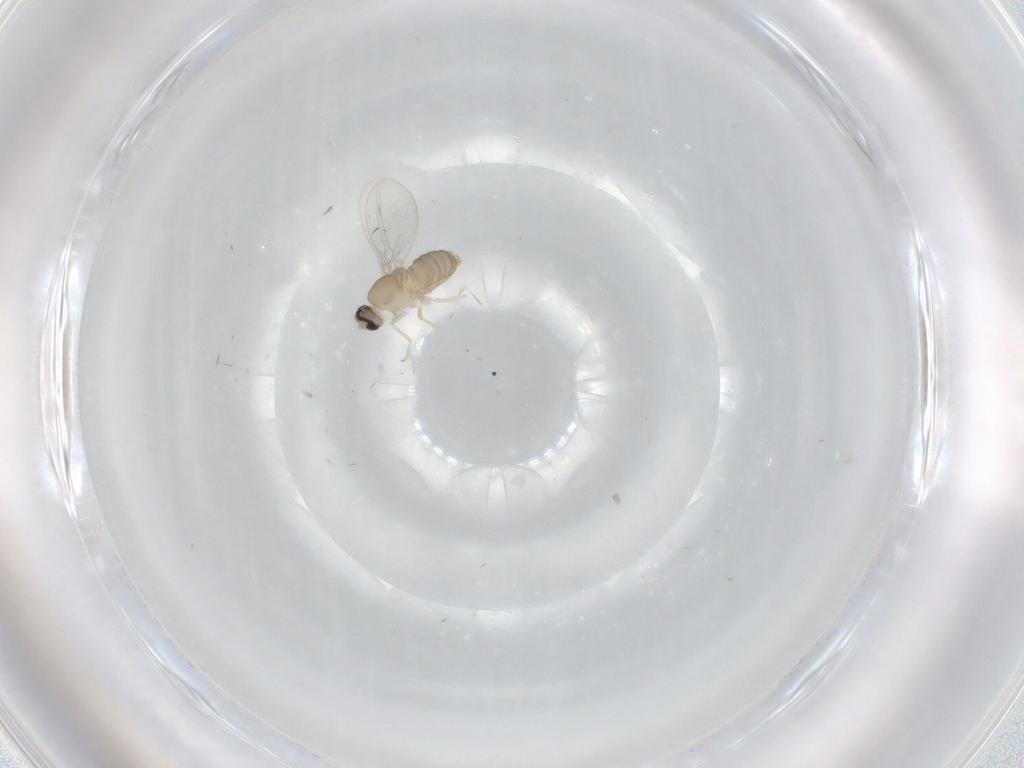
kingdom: Animalia
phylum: Arthropoda
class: Insecta
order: Diptera
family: Cecidomyiidae
